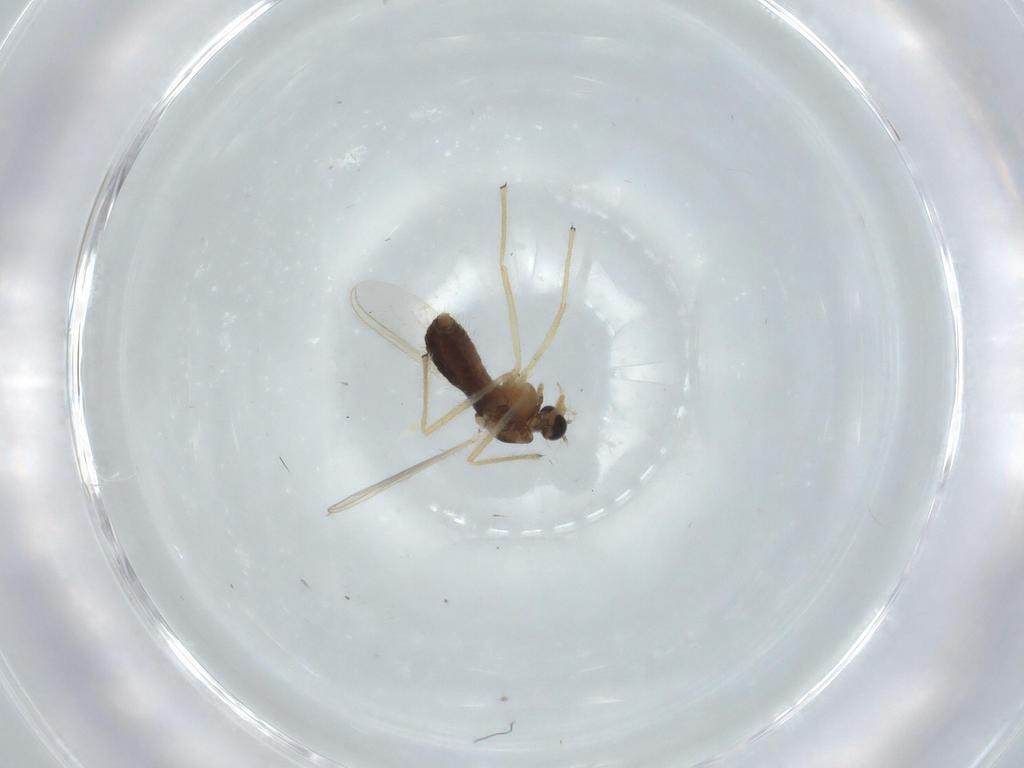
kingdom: Animalia
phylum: Arthropoda
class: Insecta
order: Diptera
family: Chironomidae
